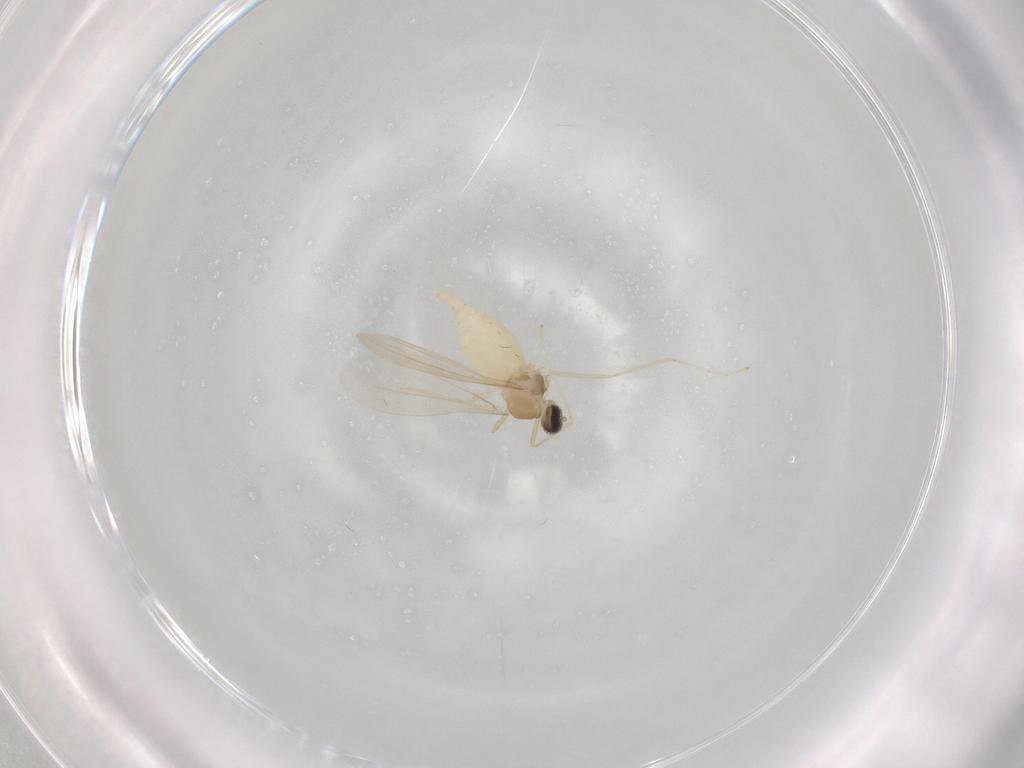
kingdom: Animalia
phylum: Arthropoda
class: Insecta
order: Diptera
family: Cecidomyiidae
